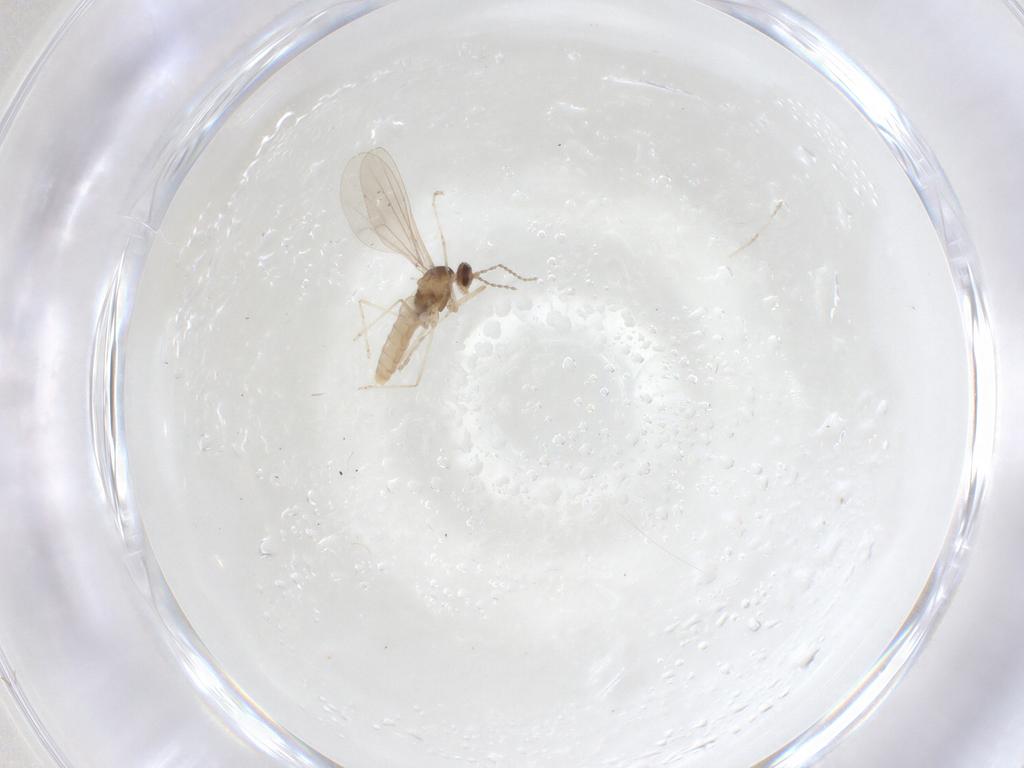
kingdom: Animalia
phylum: Arthropoda
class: Insecta
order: Diptera
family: Cecidomyiidae
